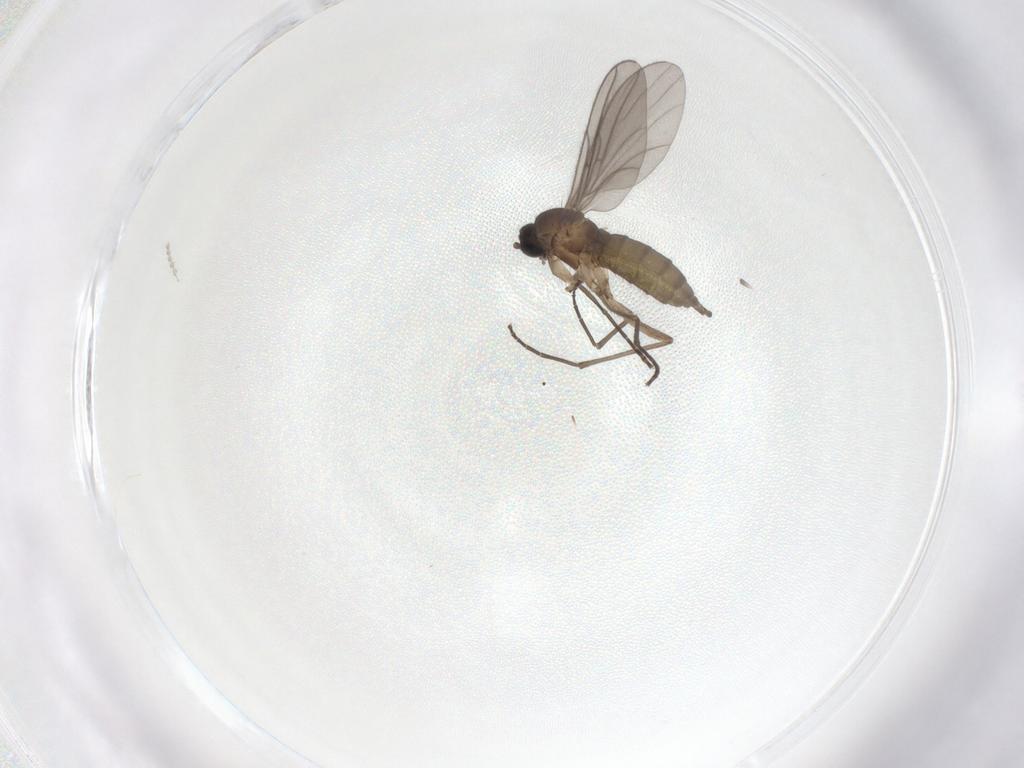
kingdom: Animalia
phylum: Arthropoda
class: Insecta
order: Diptera
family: Sciaridae
